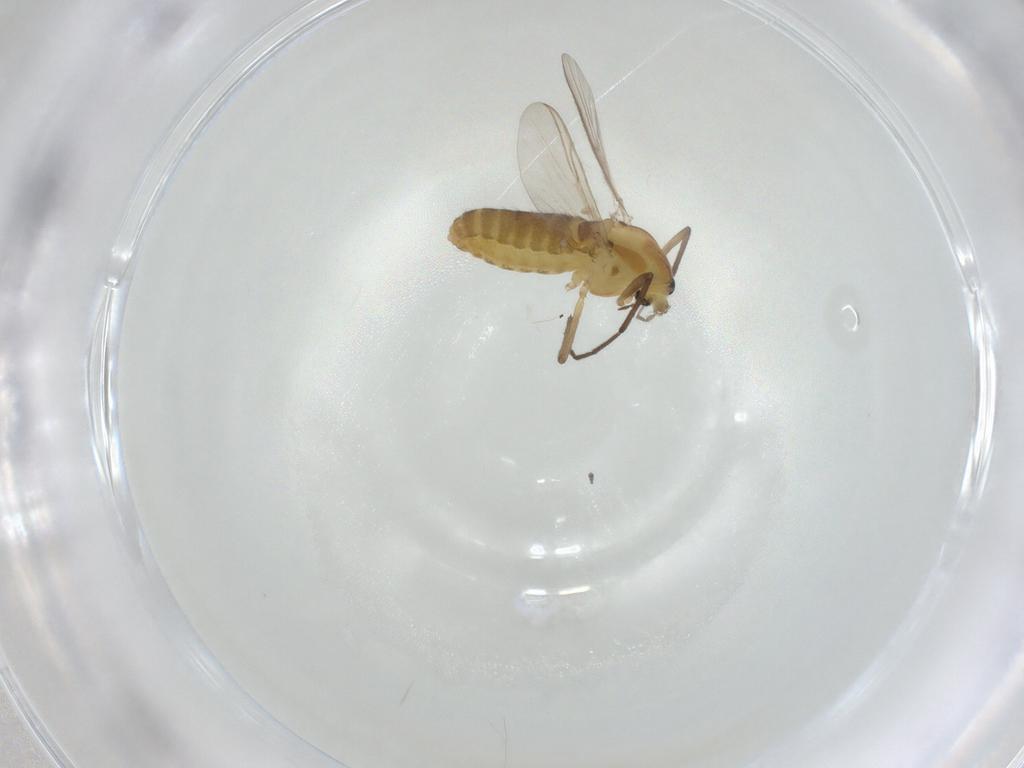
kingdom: Animalia
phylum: Arthropoda
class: Insecta
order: Diptera
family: Chironomidae
